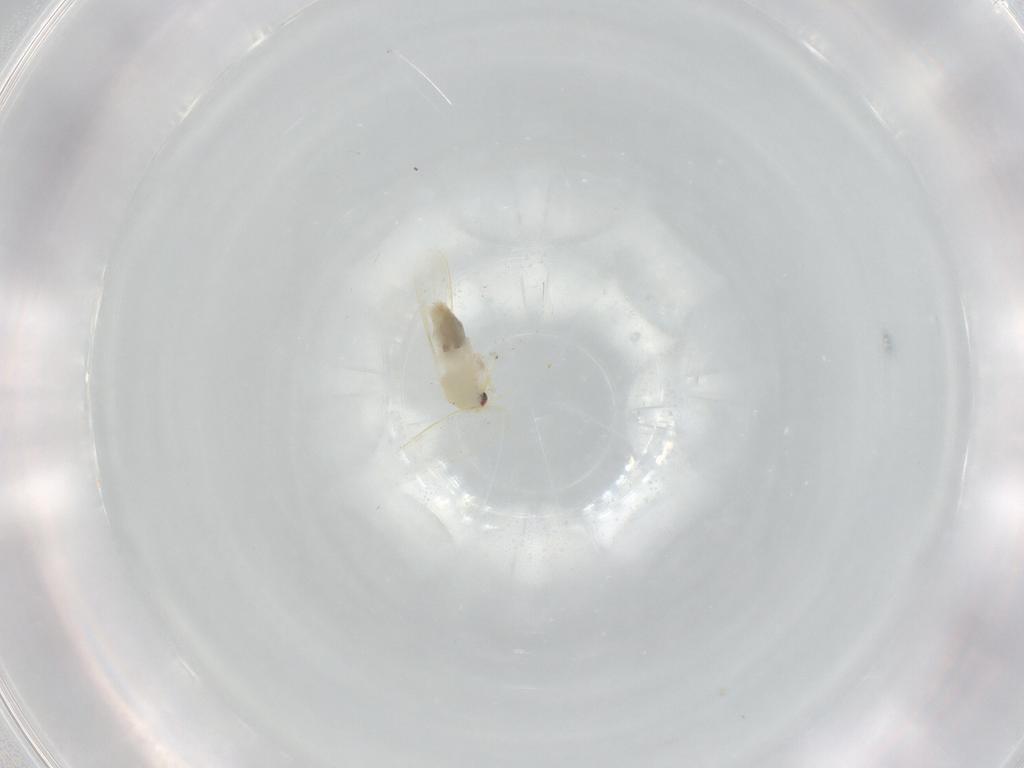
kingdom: Animalia
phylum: Arthropoda
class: Insecta
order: Hemiptera
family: Aleyrodidae
